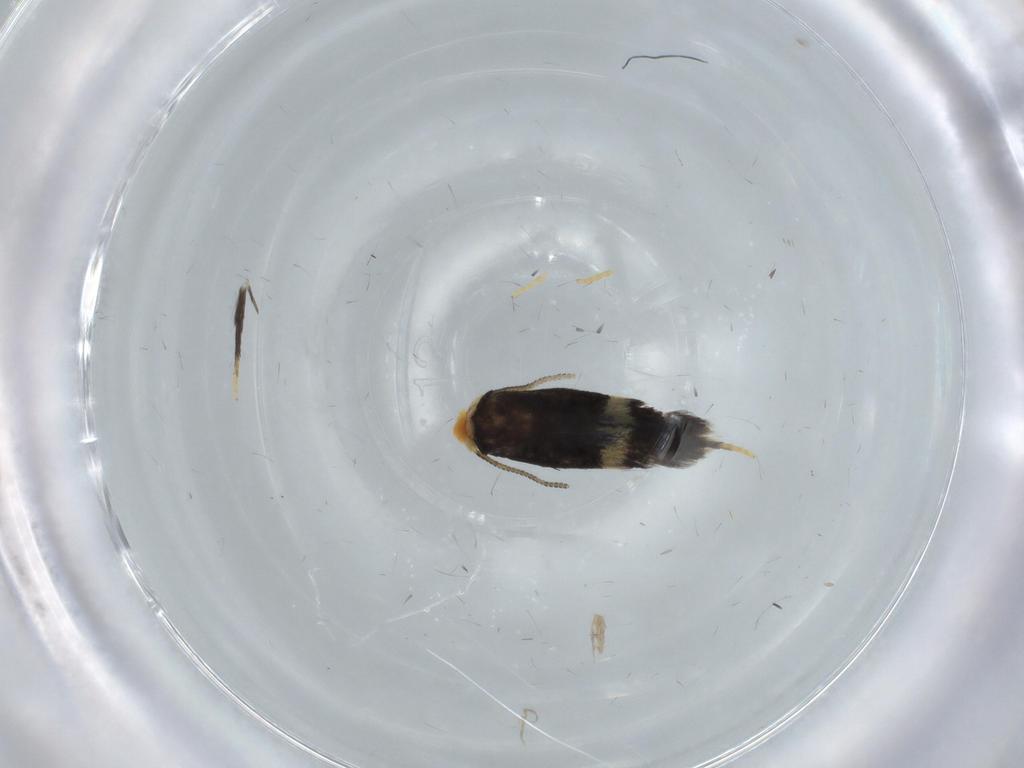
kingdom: Animalia
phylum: Arthropoda
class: Insecta
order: Lepidoptera
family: Nepticulidae
